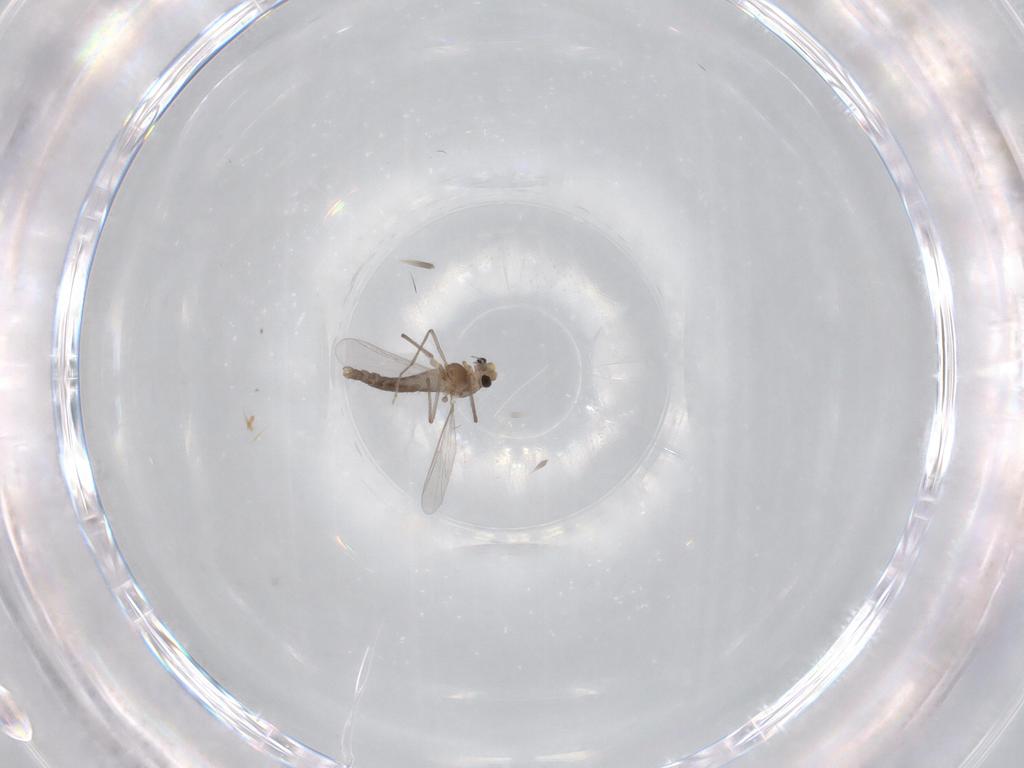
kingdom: Animalia
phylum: Arthropoda
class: Insecta
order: Diptera
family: Chironomidae
